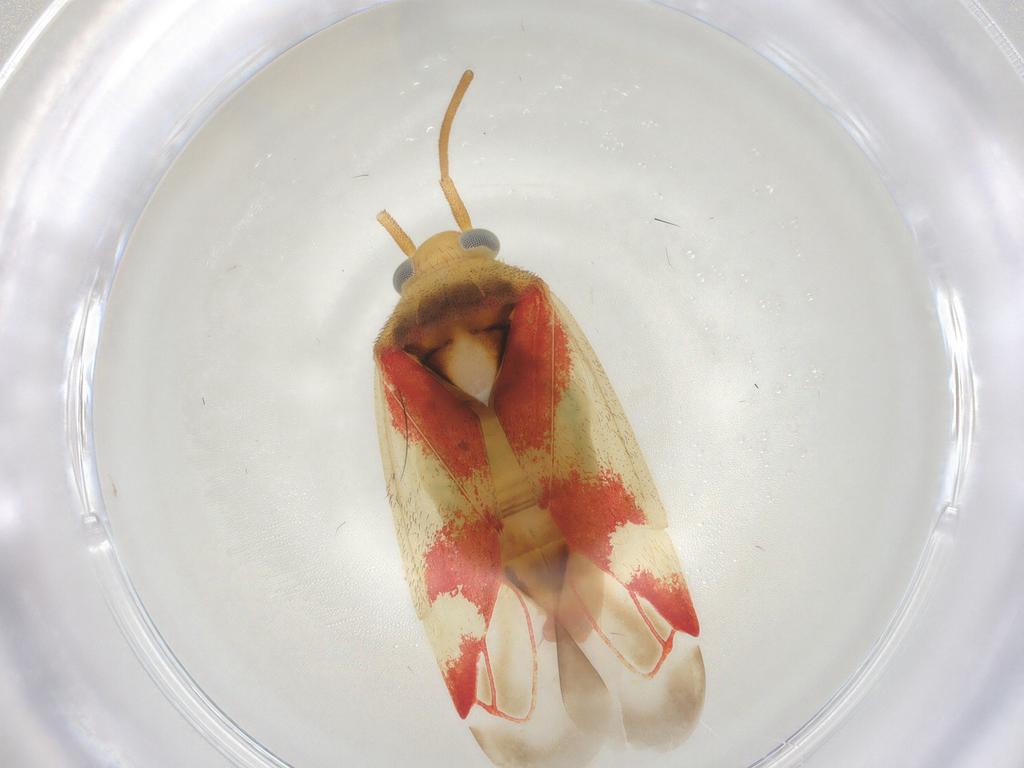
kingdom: Animalia
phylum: Arthropoda
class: Insecta
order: Hemiptera
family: Miridae
